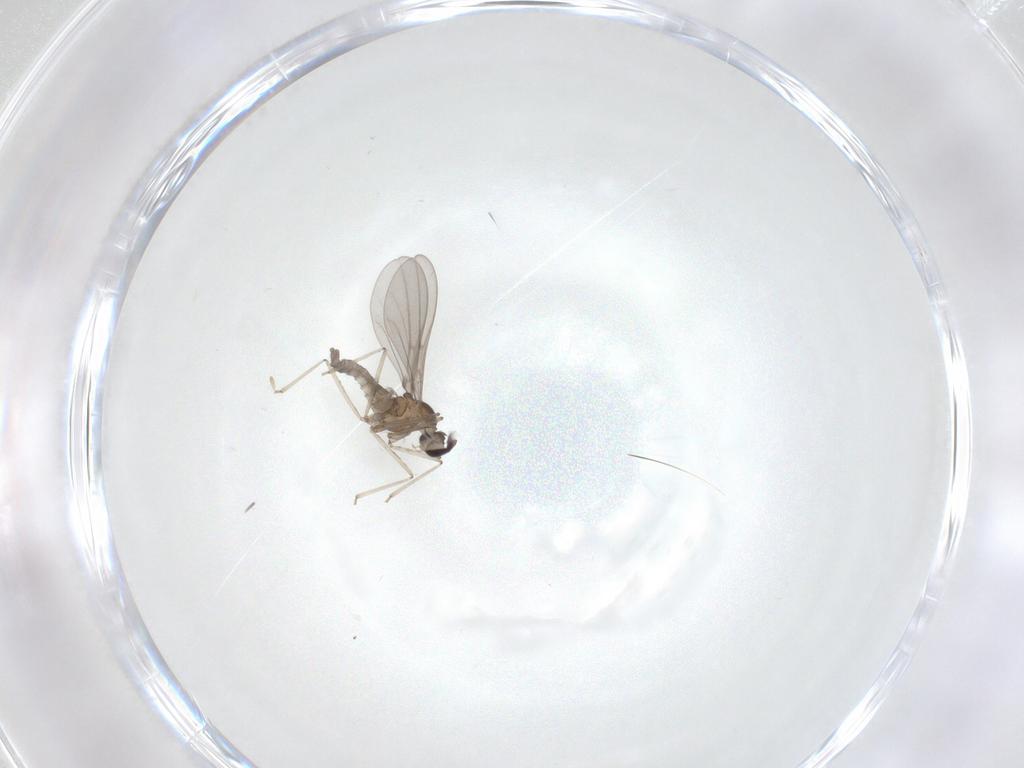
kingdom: Animalia
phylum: Arthropoda
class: Insecta
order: Diptera
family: Cecidomyiidae
